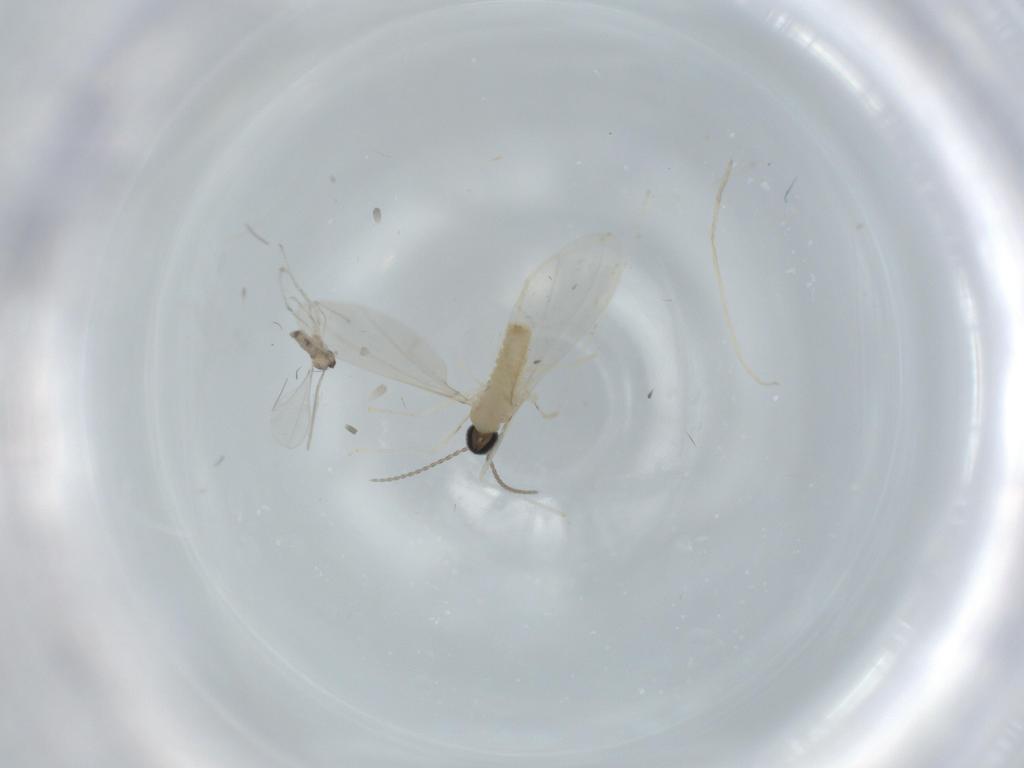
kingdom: Animalia
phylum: Arthropoda
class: Insecta
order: Diptera
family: Cecidomyiidae
